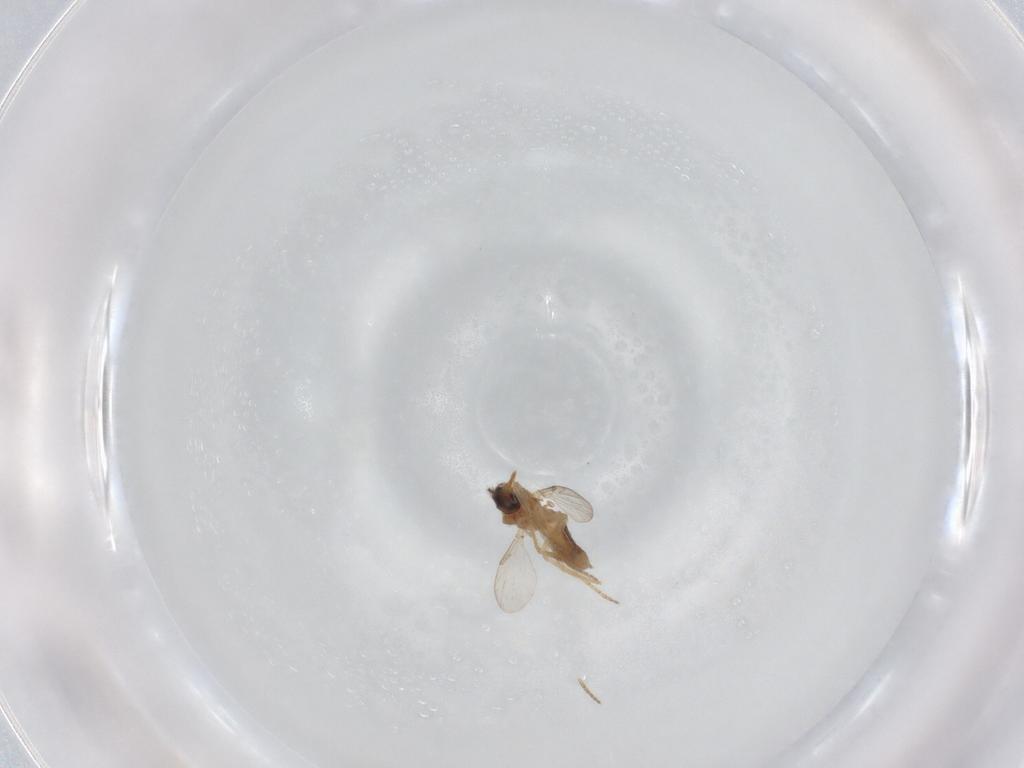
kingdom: Animalia
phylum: Arthropoda
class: Insecta
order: Diptera
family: Ceratopogonidae
